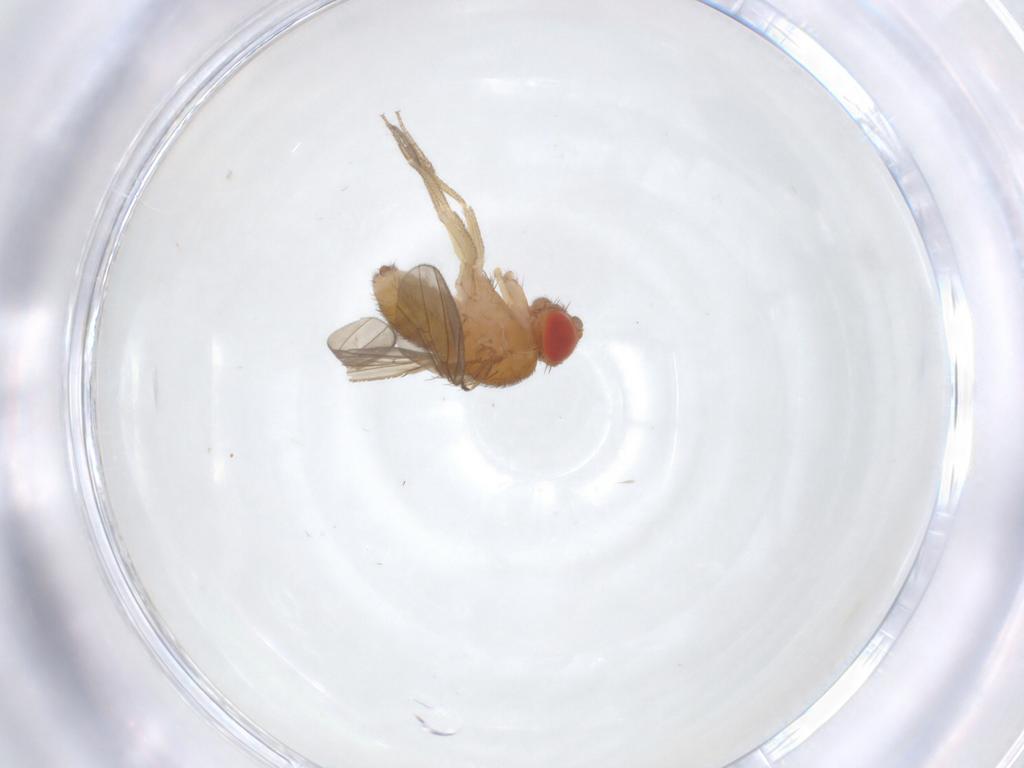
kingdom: Animalia
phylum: Arthropoda
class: Insecta
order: Diptera
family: Drosophilidae
